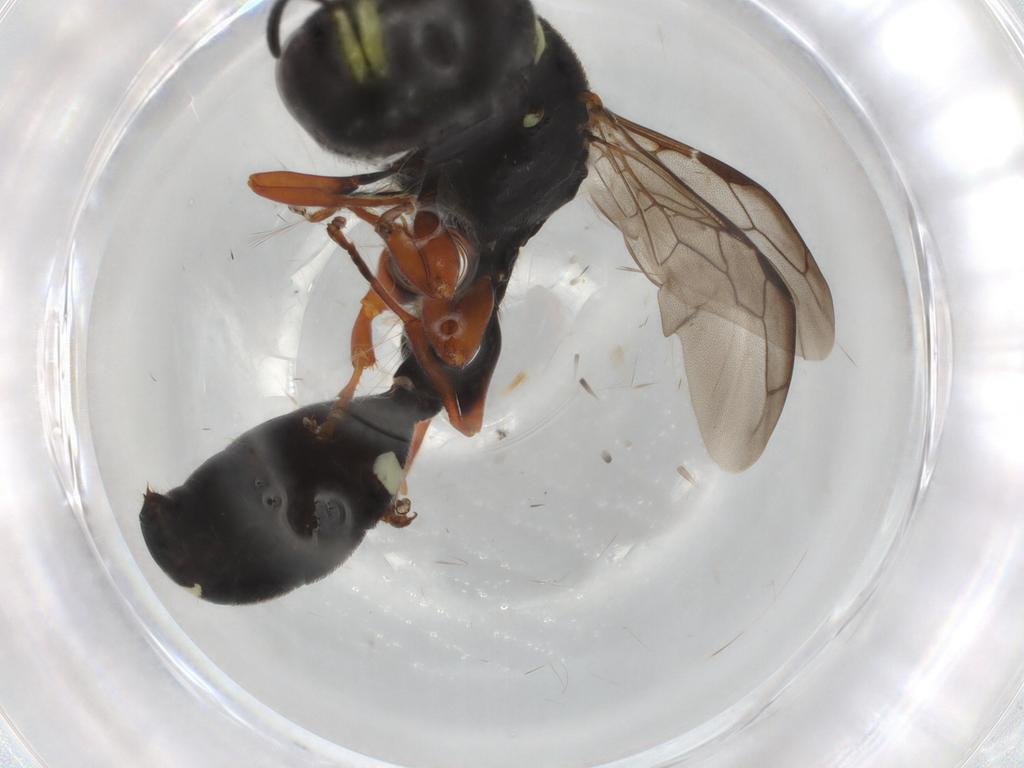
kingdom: Animalia
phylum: Arthropoda
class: Insecta
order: Hymenoptera
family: Crabronidae
